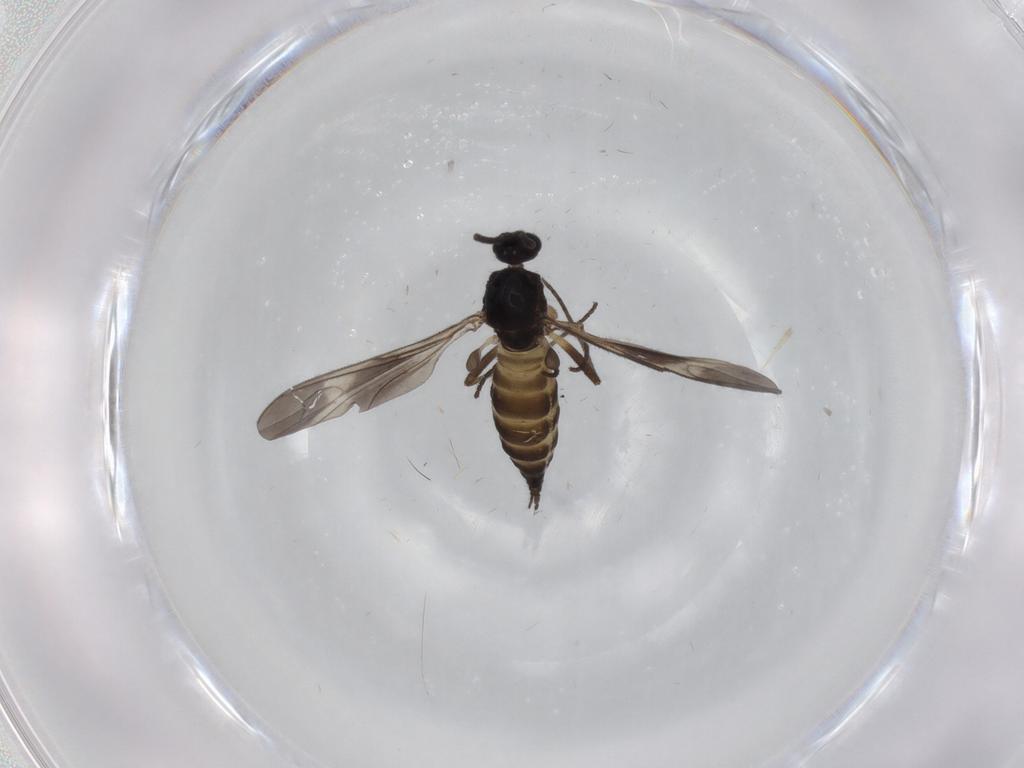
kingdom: Animalia
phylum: Arthropoda
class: Insecta
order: Diptera
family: Sciaridae
